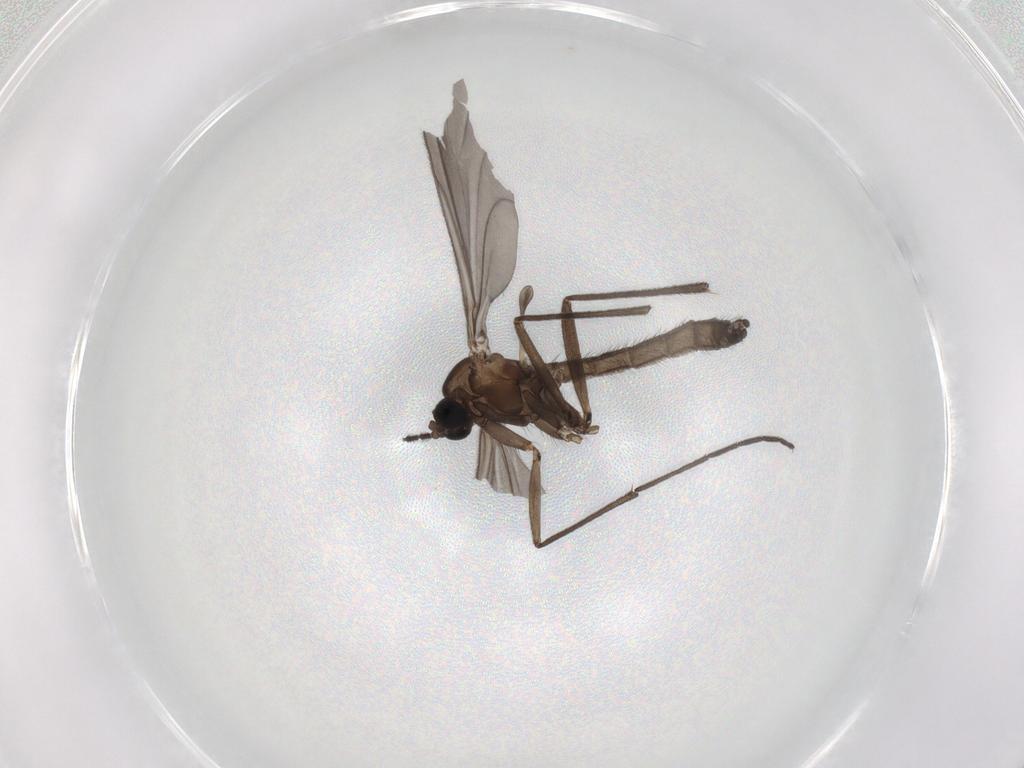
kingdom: Animalia
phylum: Arthropoda
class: Insecta
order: Diptera
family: Sciaridae
